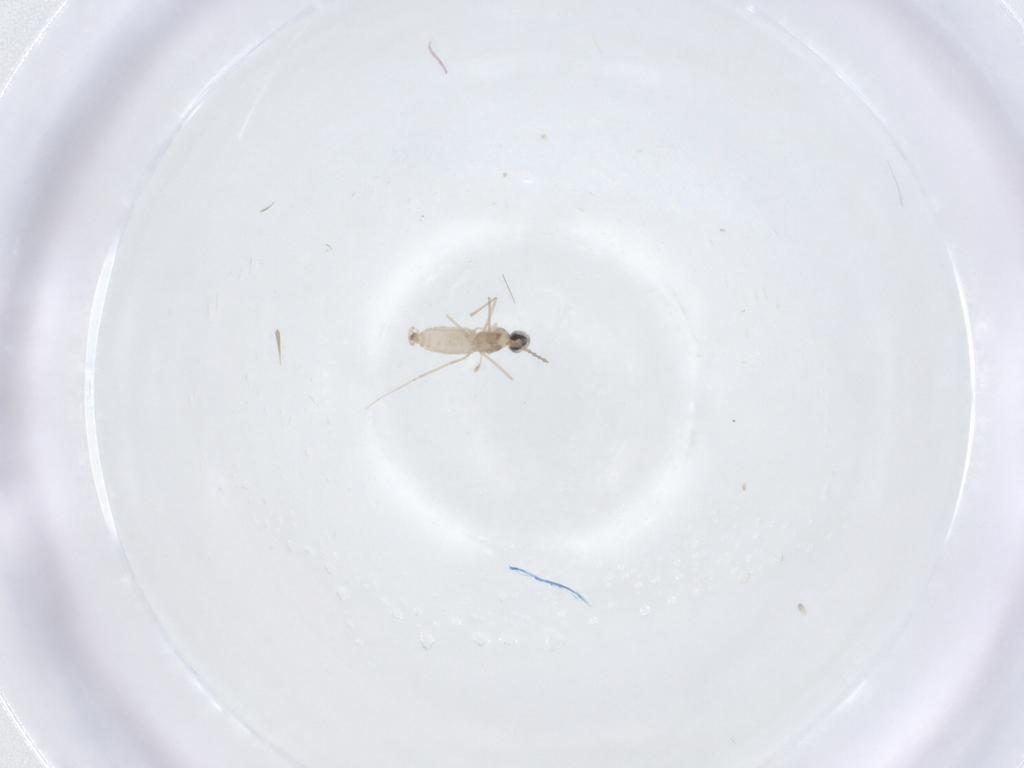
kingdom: Animalia
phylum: Arthropoda
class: Insecta
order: Diptera
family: Cecidomyiidae
